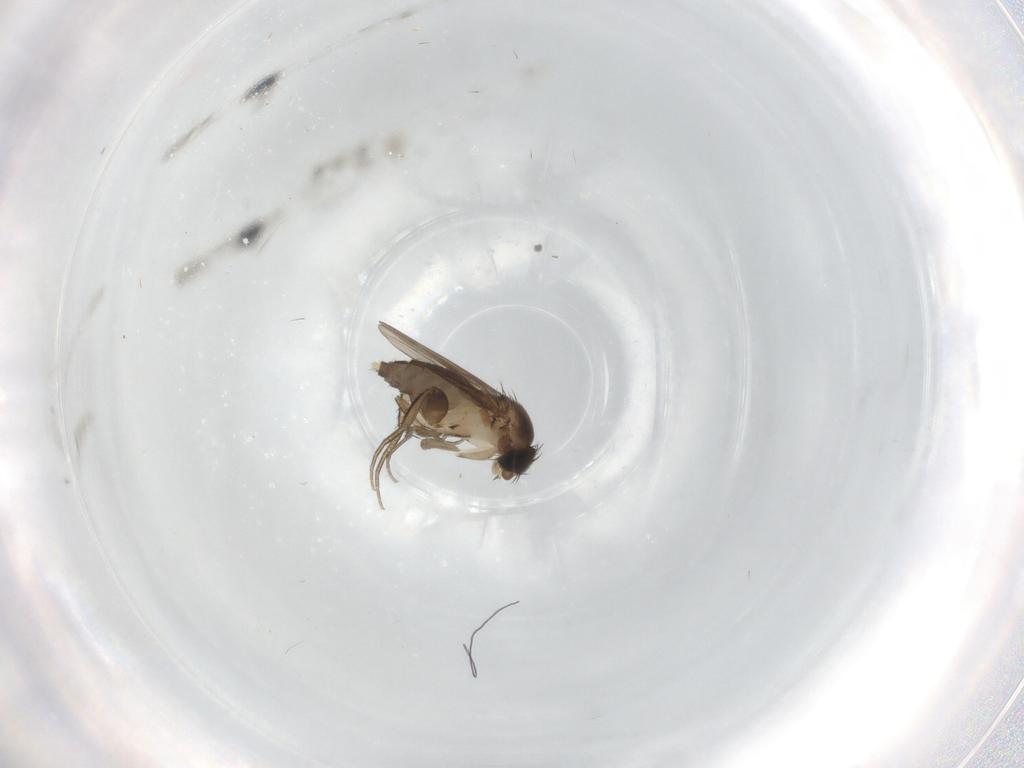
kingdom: Animalia
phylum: Arthropoda
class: Insecta
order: Diptera
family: Phoridae
